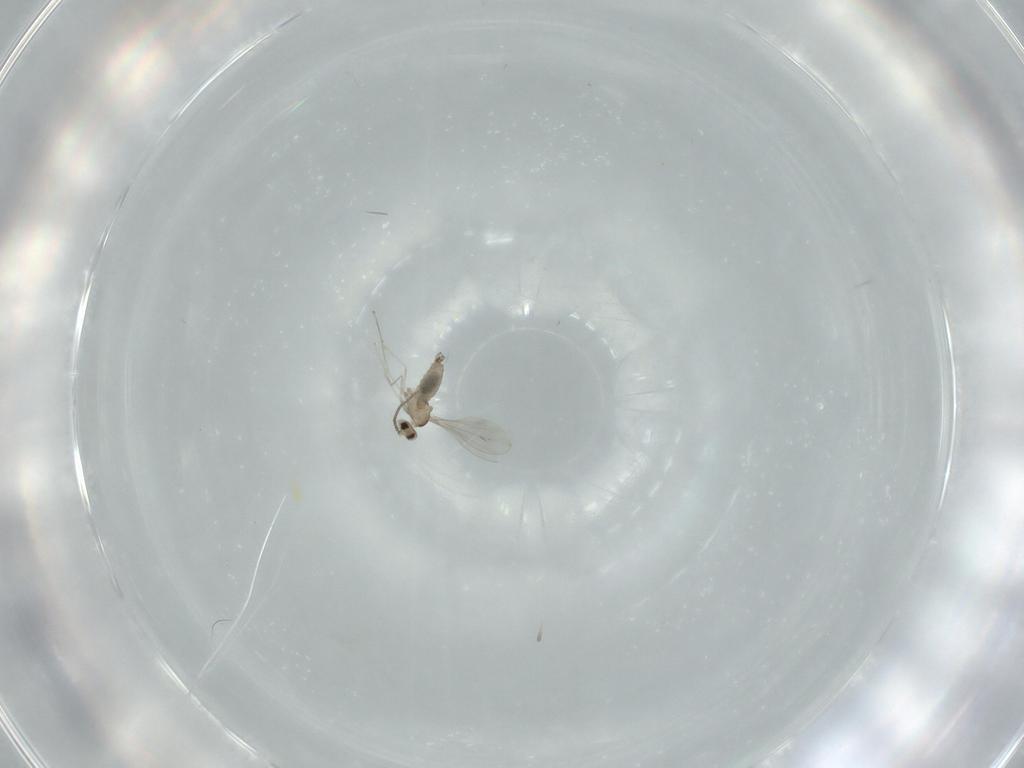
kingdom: Animalia
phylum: Arthropoda
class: Insecta
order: Diptera
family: Cecidomyiidae
